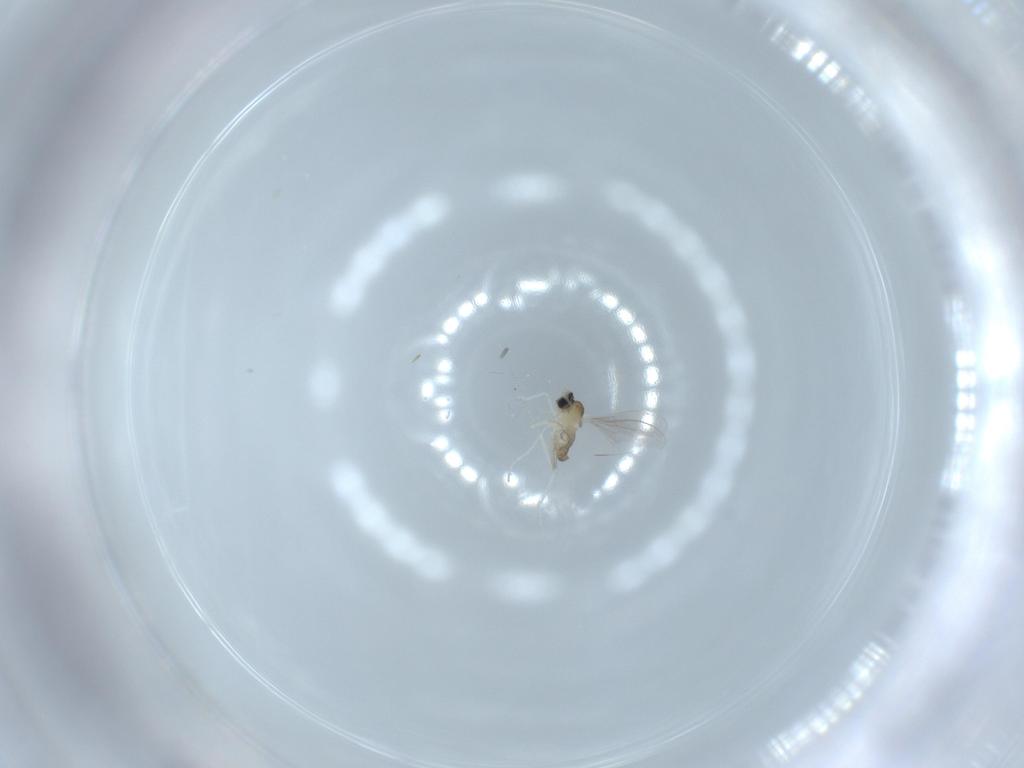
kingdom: Animalia
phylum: Arthropoda
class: Insecta
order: Diptera
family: Cecidomyiidae
